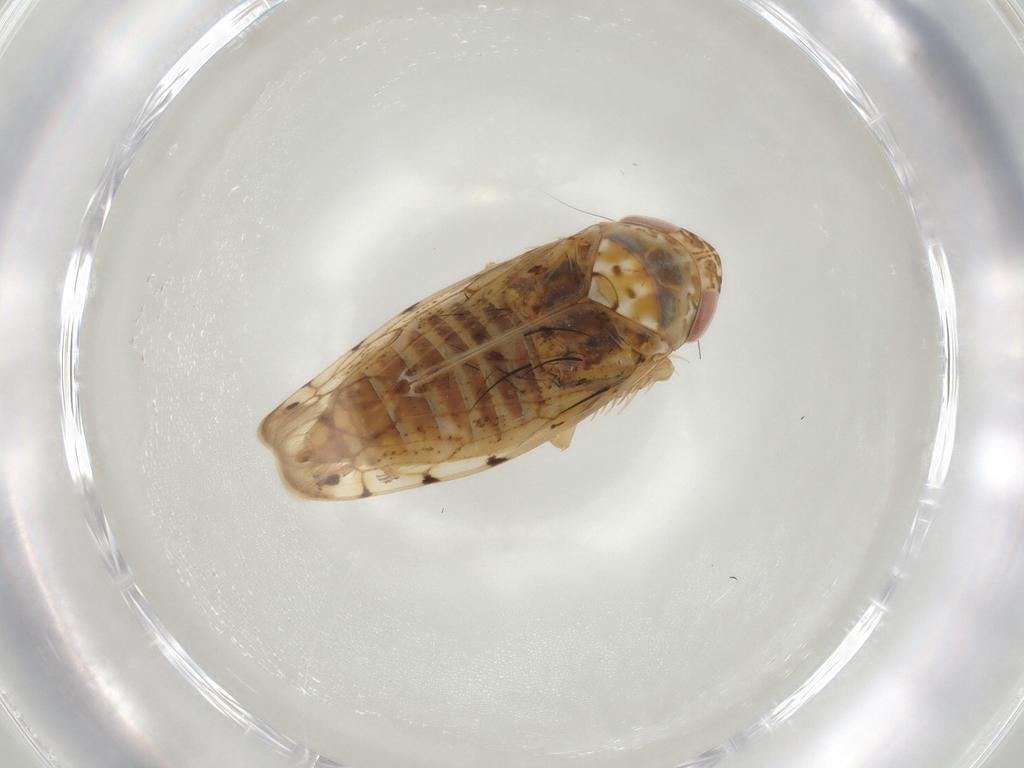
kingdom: Animalia
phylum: Arthropoda
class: Insecta
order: Hemiptera
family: Cicadellidae
